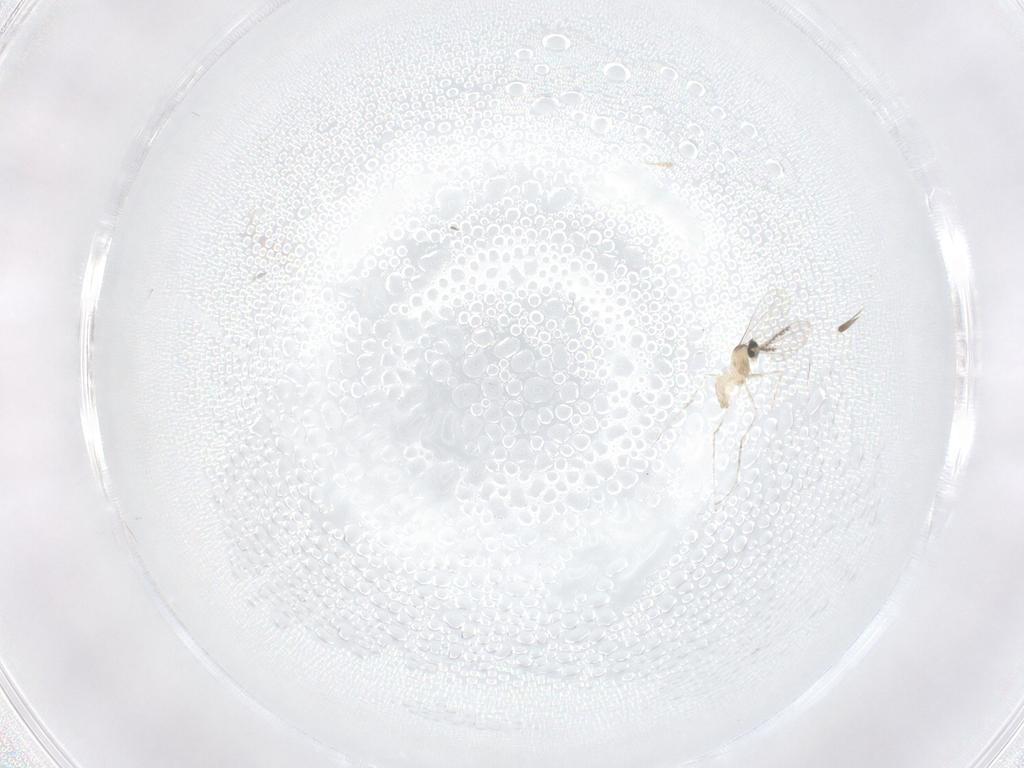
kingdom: Animalia
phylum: Arthropoda
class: Insecta
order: Diptera
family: Cecidomyiidae
